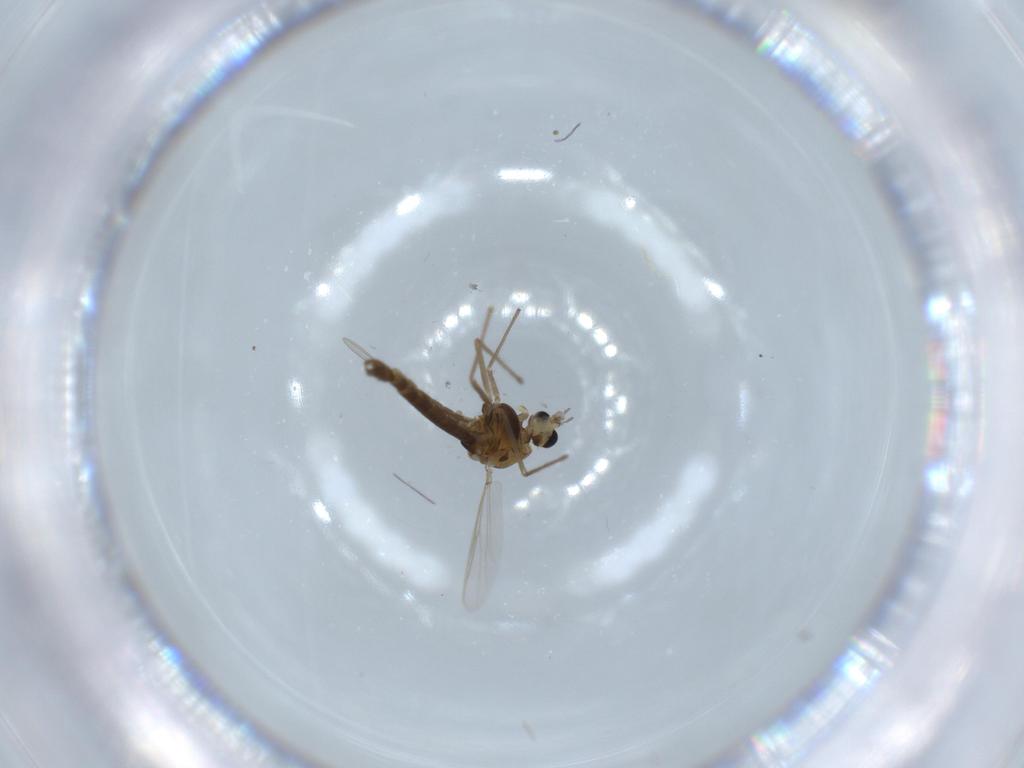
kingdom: Animalia
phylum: Arthropoda
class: Insecta
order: Diptera
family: Chironomidae
